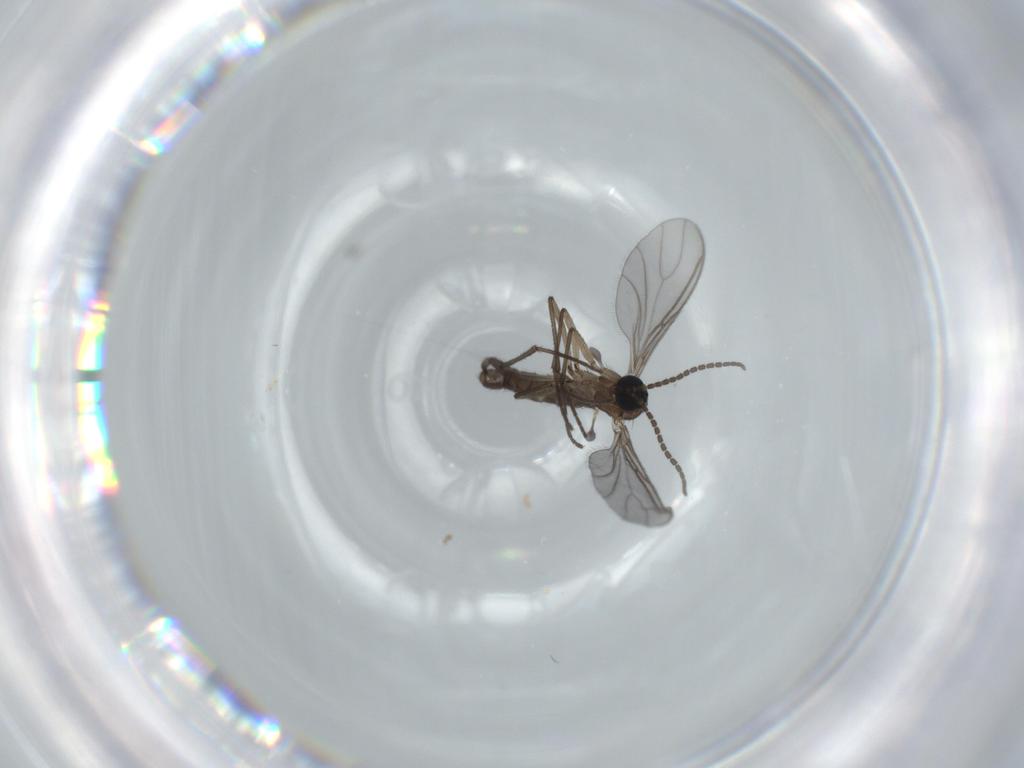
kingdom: Animalia
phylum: Arthropoda
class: Insecta
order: Diptera
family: Sciaridae
